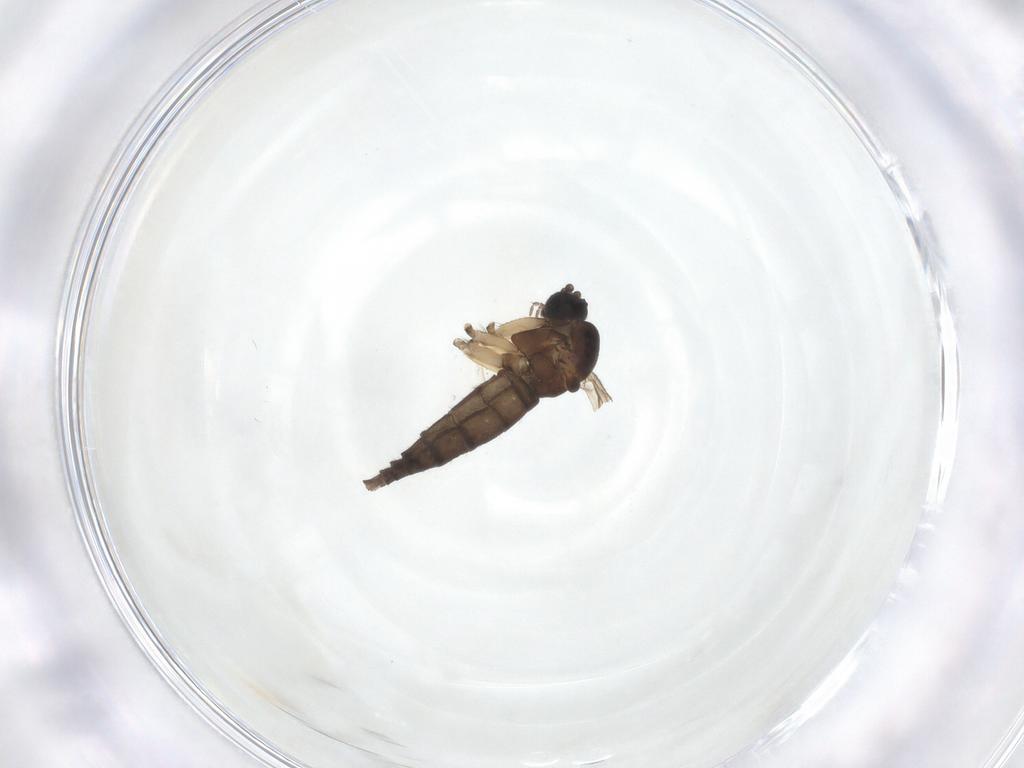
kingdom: Animalia
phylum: Arthropoda
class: Insecta
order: Diptera
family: Sciaridae
